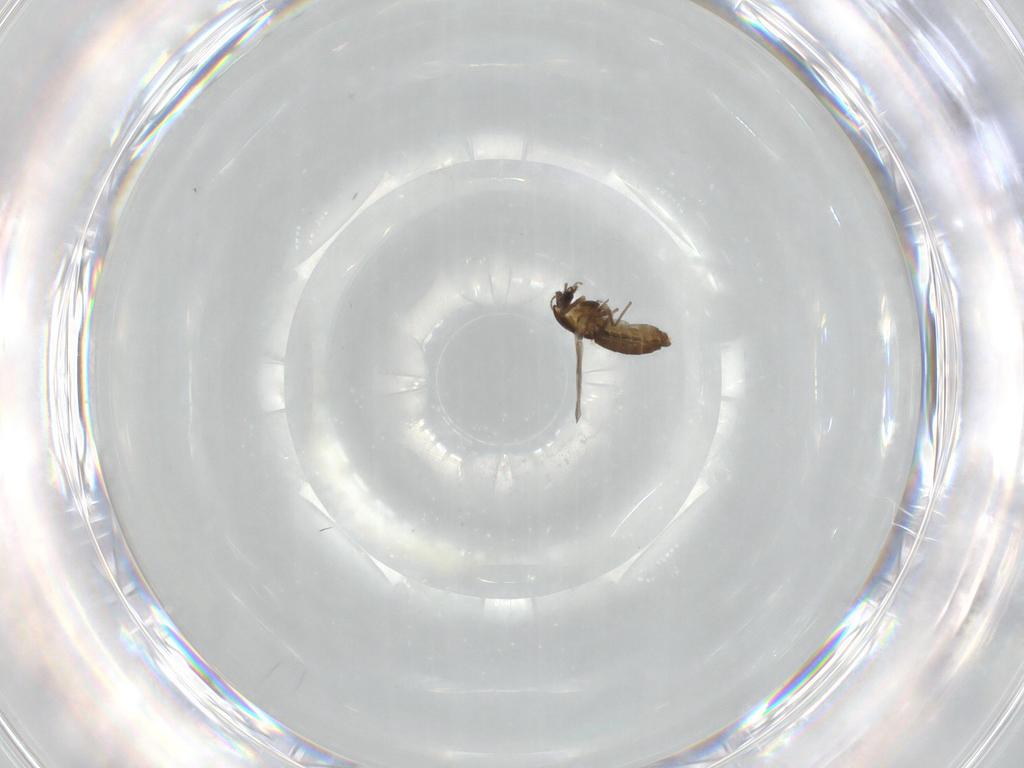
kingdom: Animalia
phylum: Arthropoda
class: Insecta
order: Diptera
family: Chironomidae
